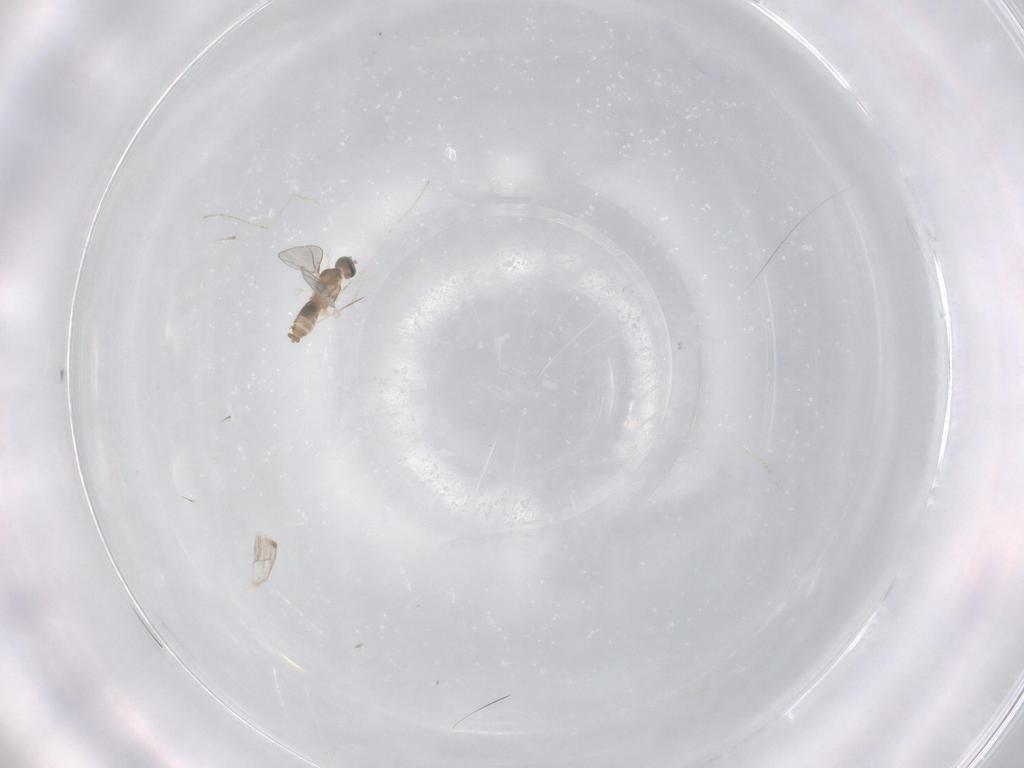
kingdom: Animalia
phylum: Arthropoda
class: Insecta
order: Diptera
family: Cecidomyiidae
